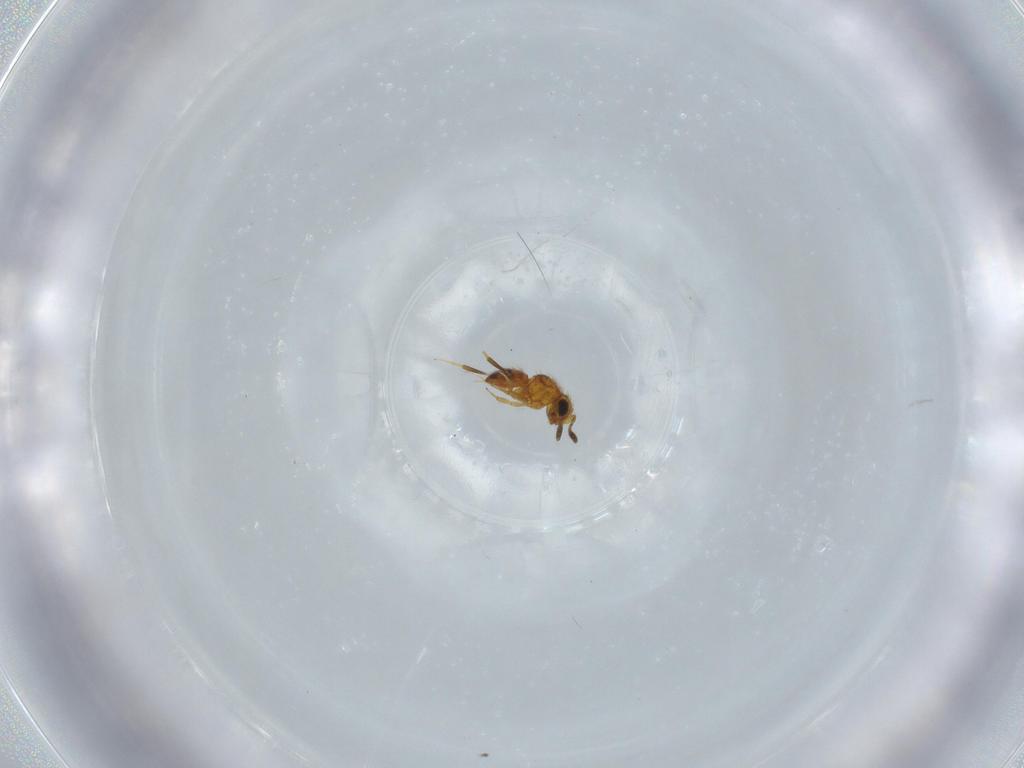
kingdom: Animalia
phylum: Arthropoda
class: Insecta
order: Hymenoptera
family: Scelionidae
